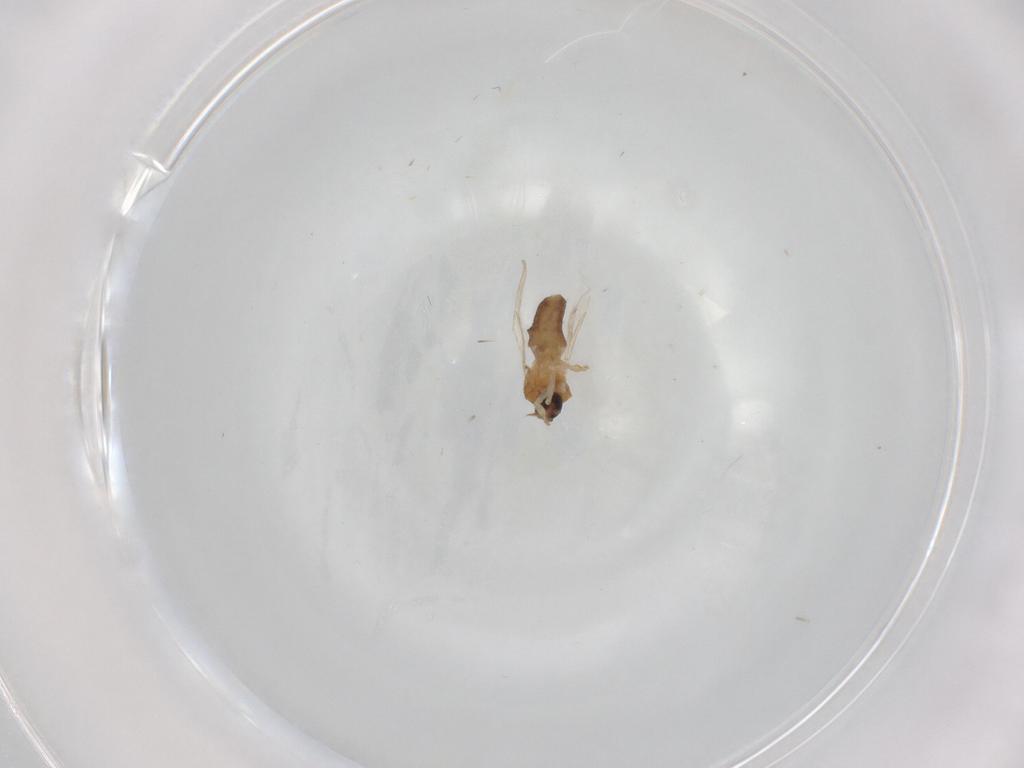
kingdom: Animalia
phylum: Arthropoda
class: Insecta
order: Diptera
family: Ceratopogonidae
